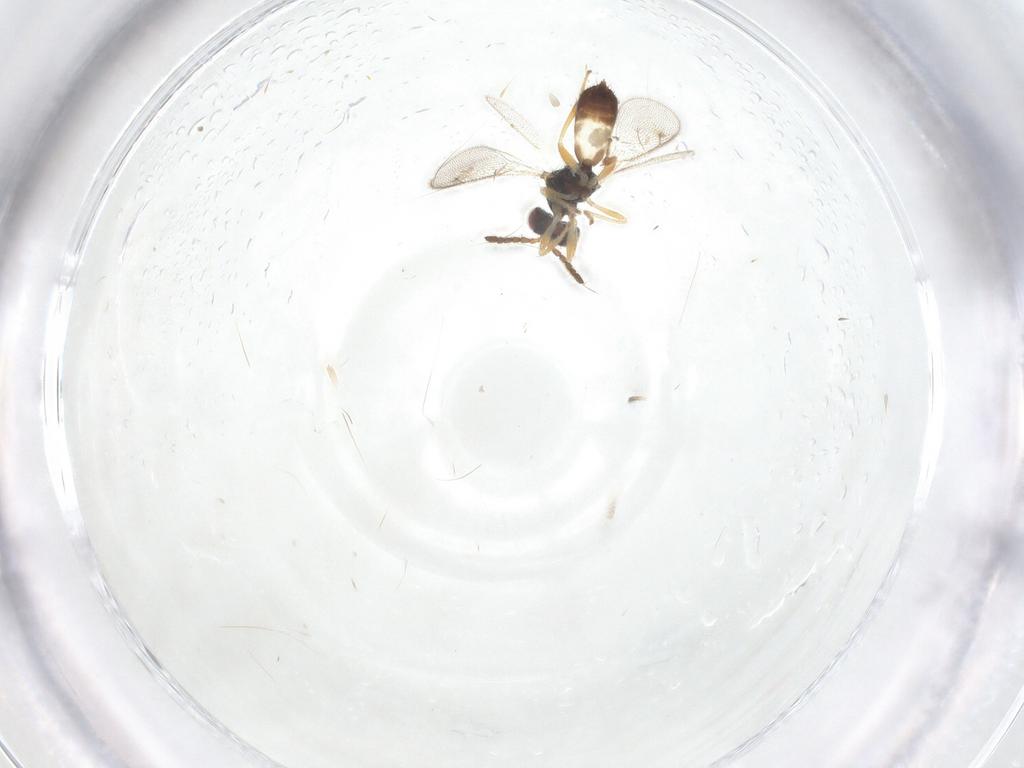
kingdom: Animalia
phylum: Arthropoda
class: Insecta
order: Hymenoptera
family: Eulophidae
